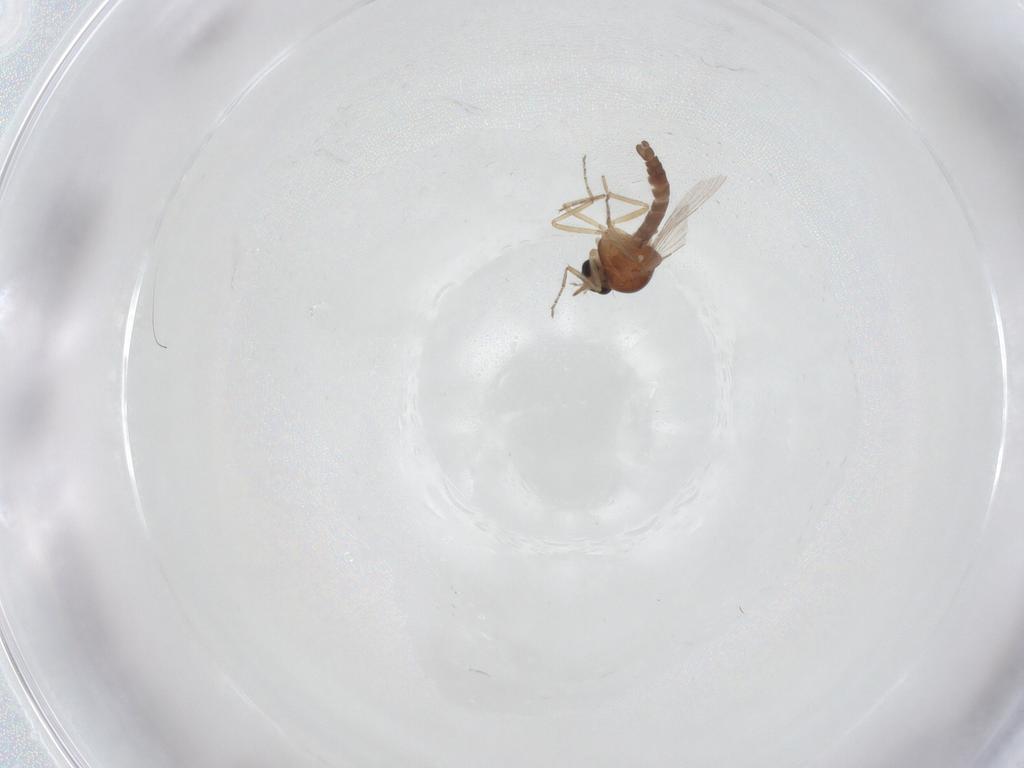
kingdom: Animalia
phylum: Arthropoda
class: Insecta
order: Diptera
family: Ceratopogonidae
